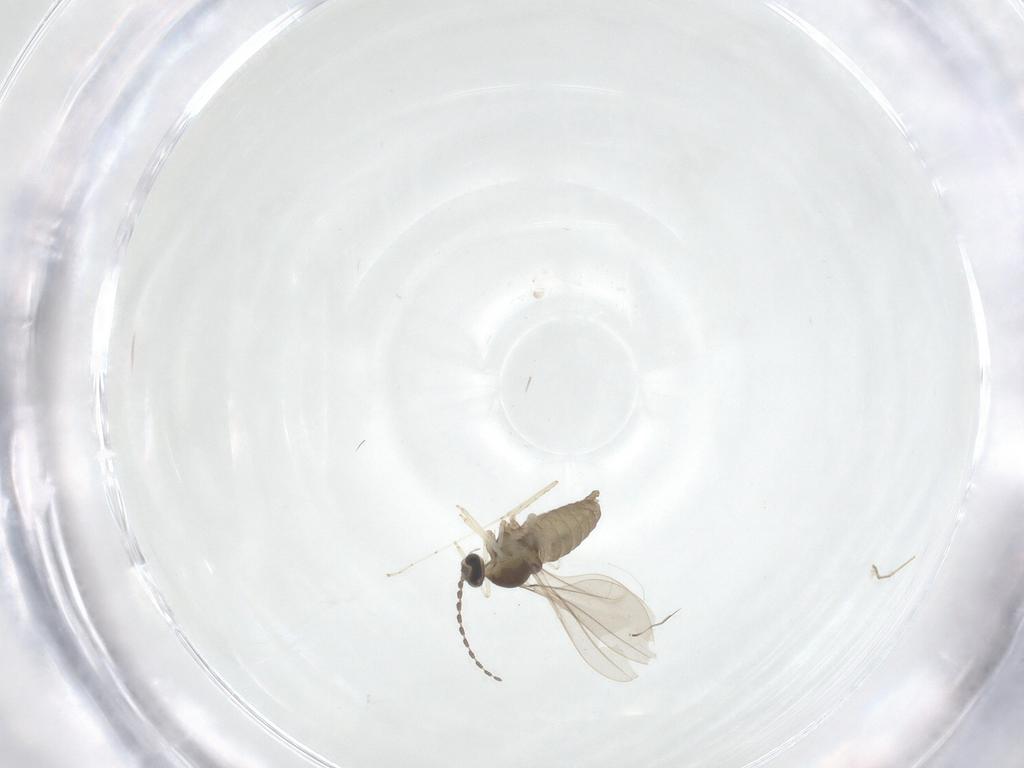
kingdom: Animalia
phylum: Arthropoda
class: Insecta
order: Diptera
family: Cecidomyiidae
